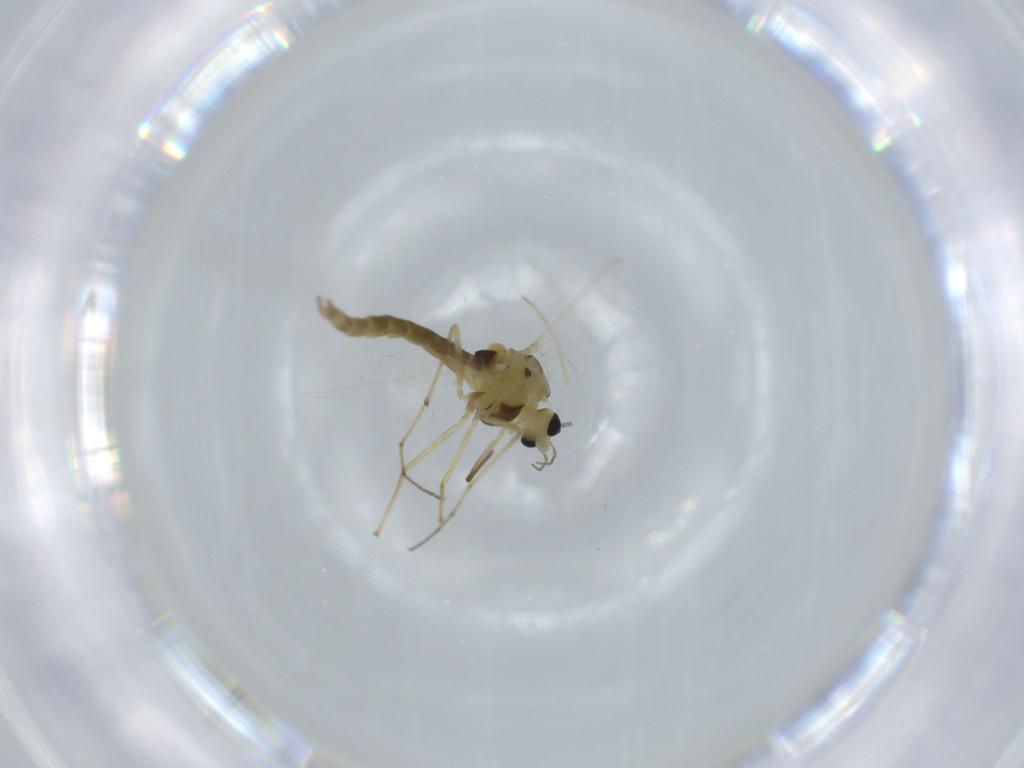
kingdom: Animalia
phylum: Arthropoda
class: Insecta
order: Diptera
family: Chironomidae
